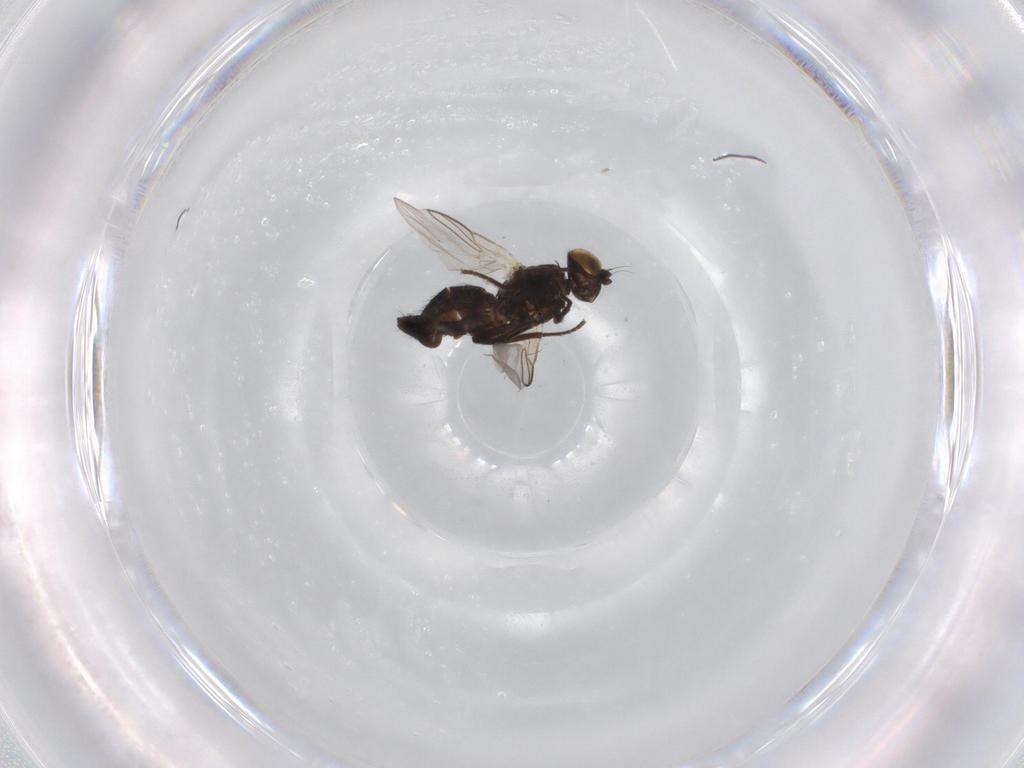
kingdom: Animalia
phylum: Arthropoda
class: Insecta
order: Diptera
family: Agromyzidae
